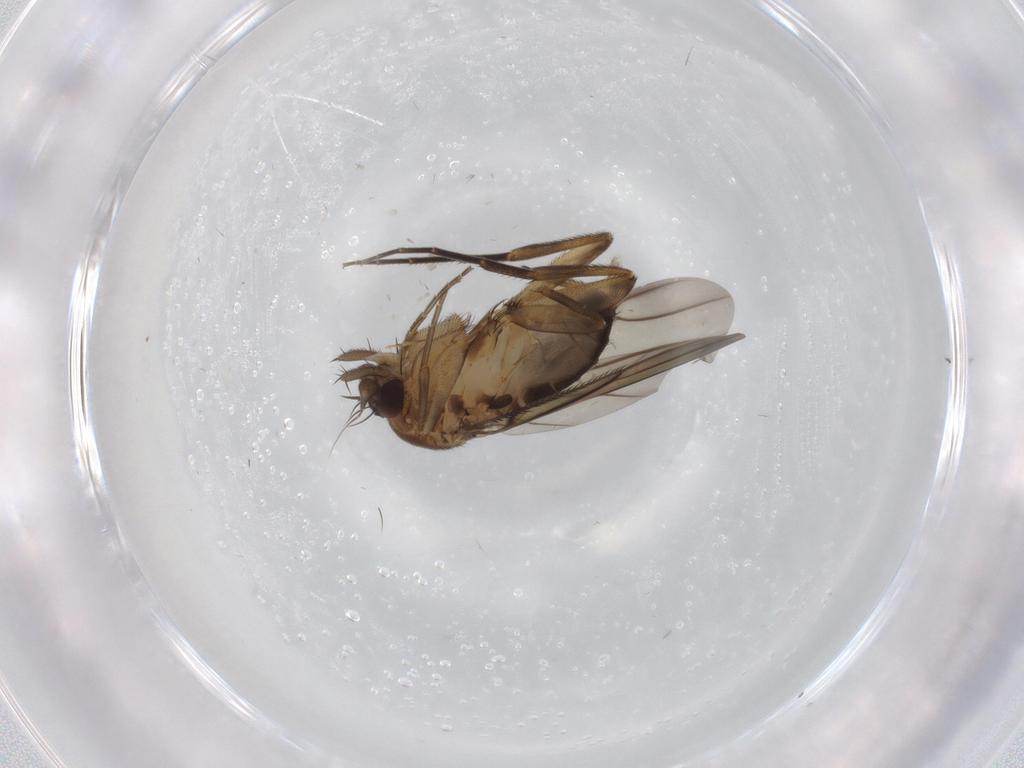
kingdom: Animalia
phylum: Arthropoda
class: Insecta
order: Diptera
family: Phoridae
